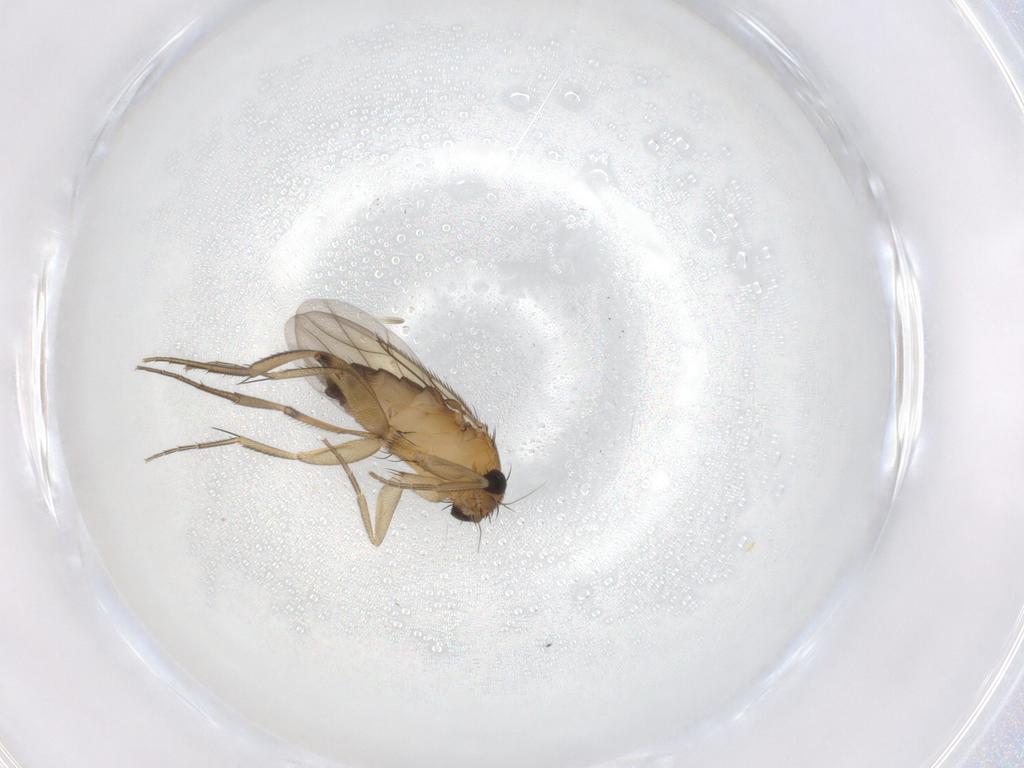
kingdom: Animalia
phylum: Arthropoda
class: Insecta
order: Diptera
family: Phoridae
